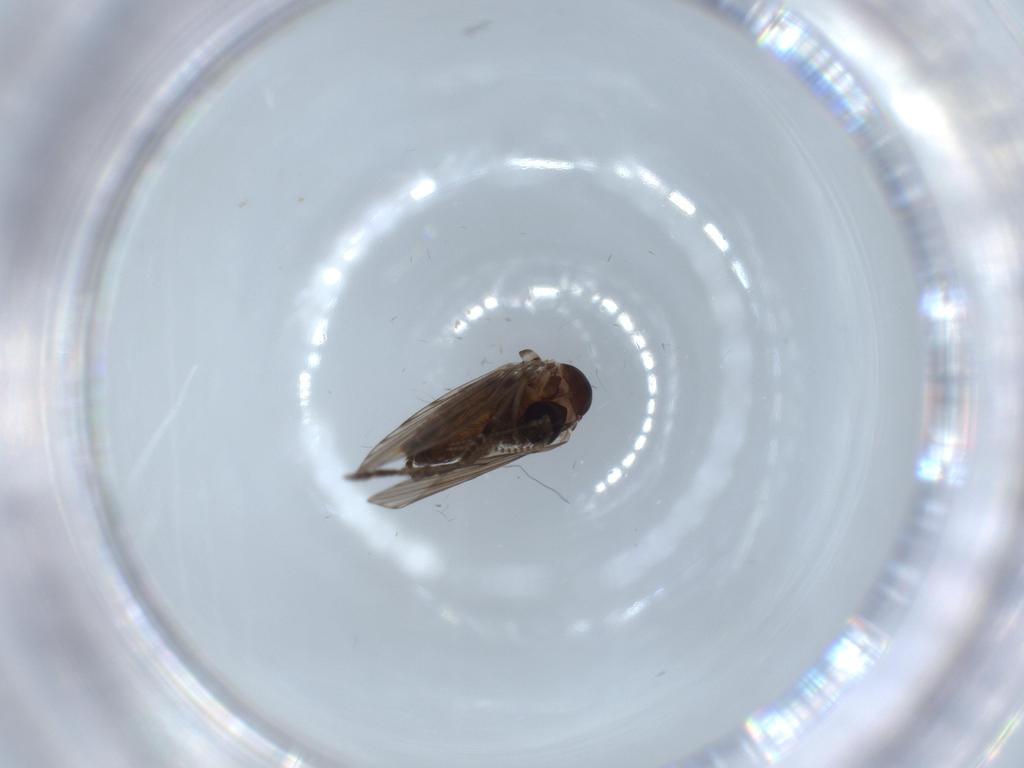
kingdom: Animalia
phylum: Arthropoda
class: Insecta
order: Diptera
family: Psychodidae
